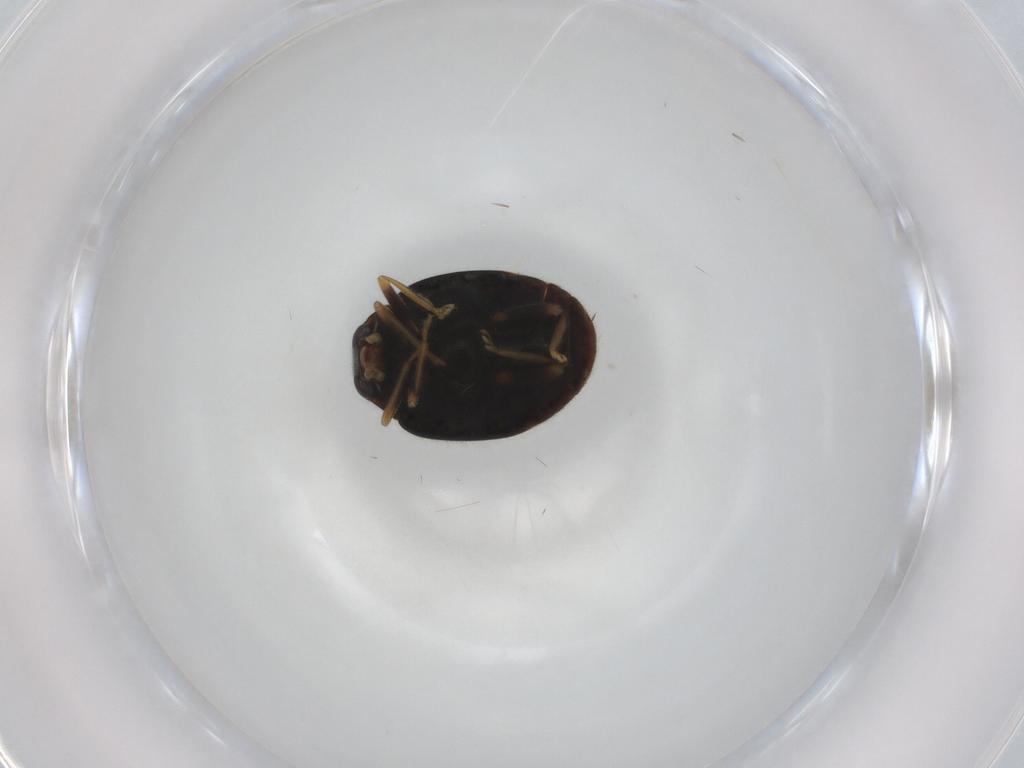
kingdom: Animalia
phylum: Arthropoda
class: Insecta
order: Coleoptera
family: Coccinellidae
